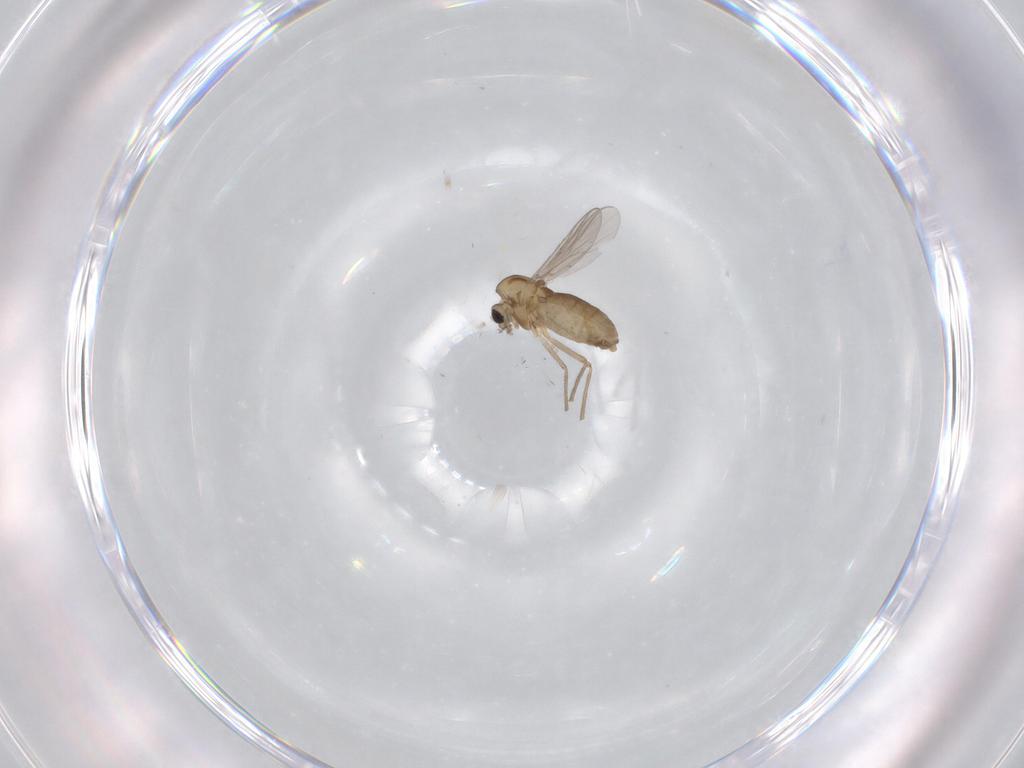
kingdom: Animalia
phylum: Arthropoda
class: Insecta
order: Diptera
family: Chironomidae
